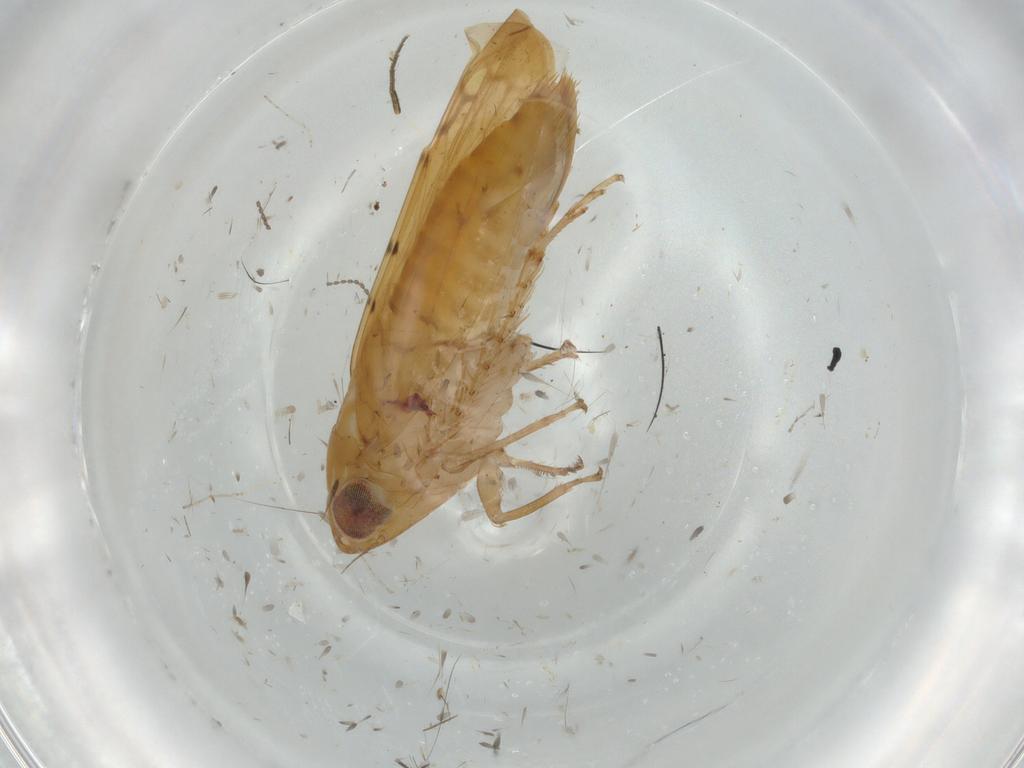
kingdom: Animalia
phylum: Arthropoda
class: Insecta
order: Hemiptera
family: Cicadellidae
